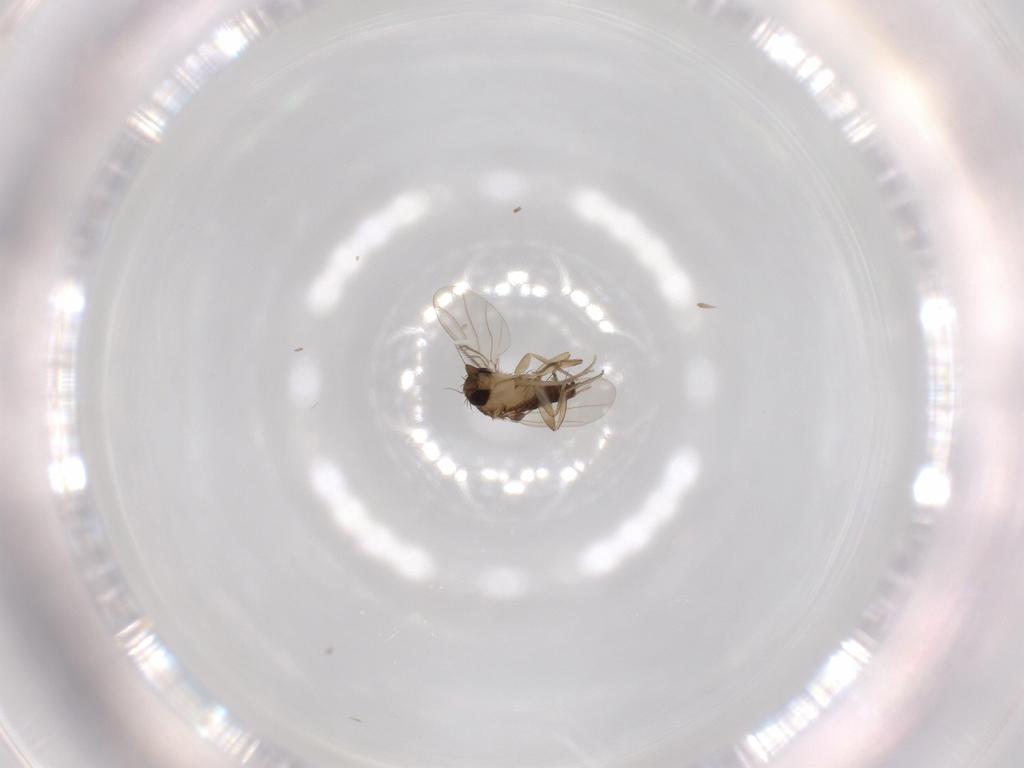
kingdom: Animalia
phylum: Arthropoda
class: Insecta
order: Diptera
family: Phoridae
